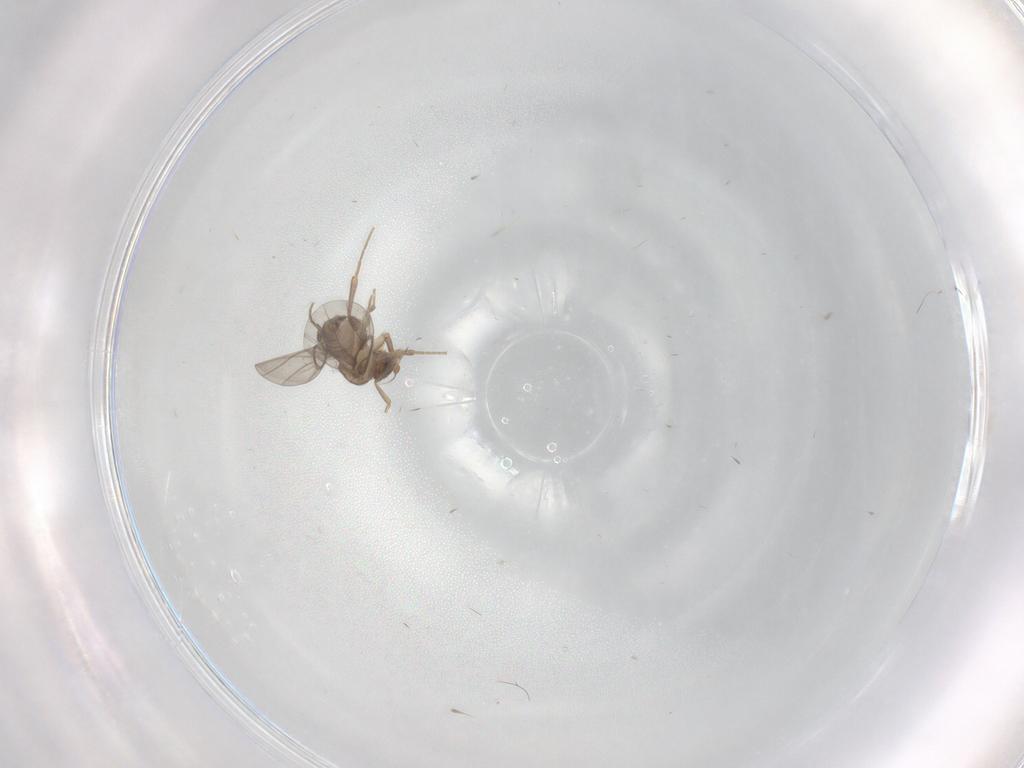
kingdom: Animalia
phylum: Arthropoda
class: Insecta
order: Diptera
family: Cecidomyiidae
